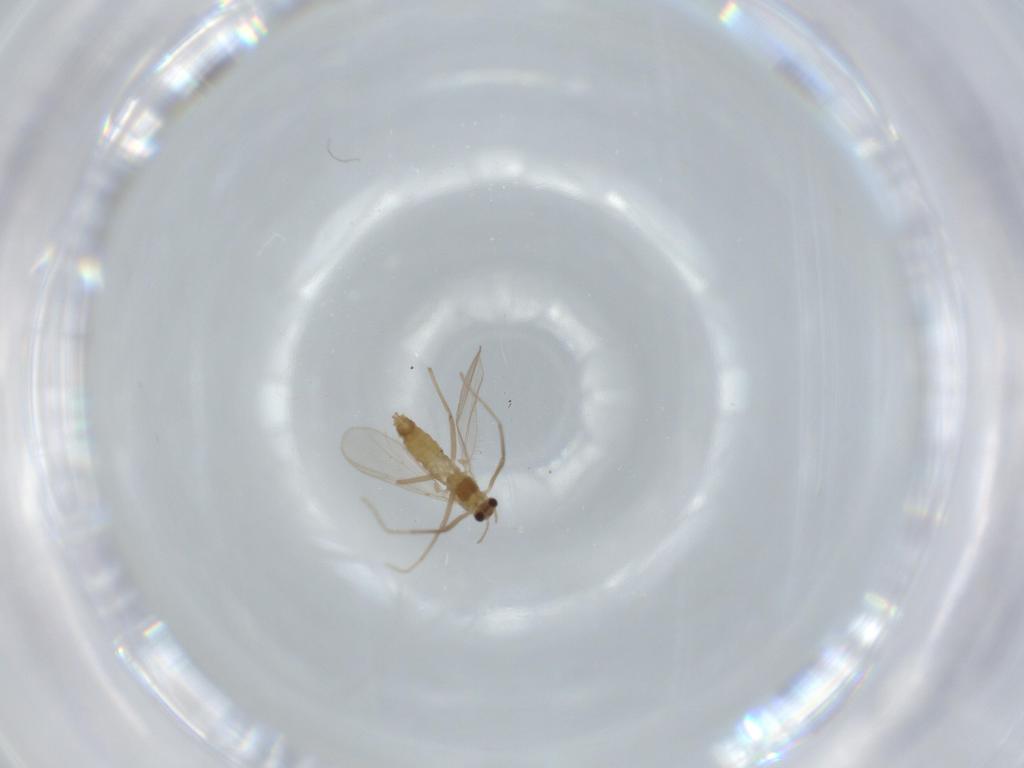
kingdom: Animalia
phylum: Arthropoda
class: Insecta
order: Diptera
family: Chironomidae
